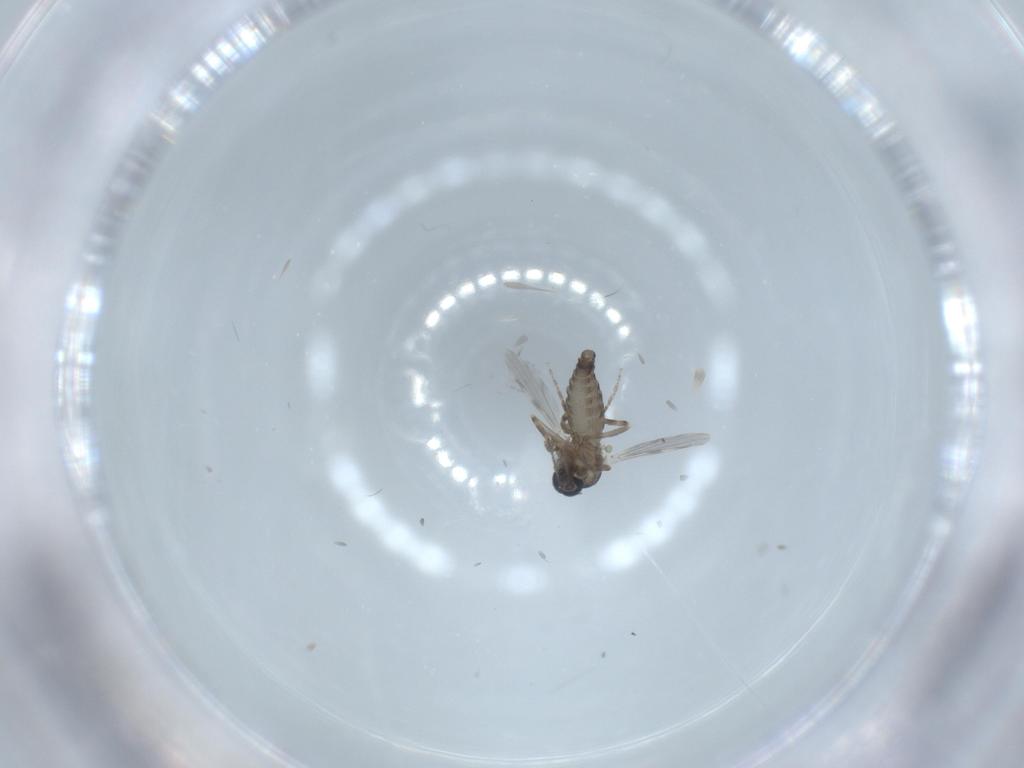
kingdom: Animalia
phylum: Arthropoda
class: Insecta
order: Diptera
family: Ceratopogonidae
